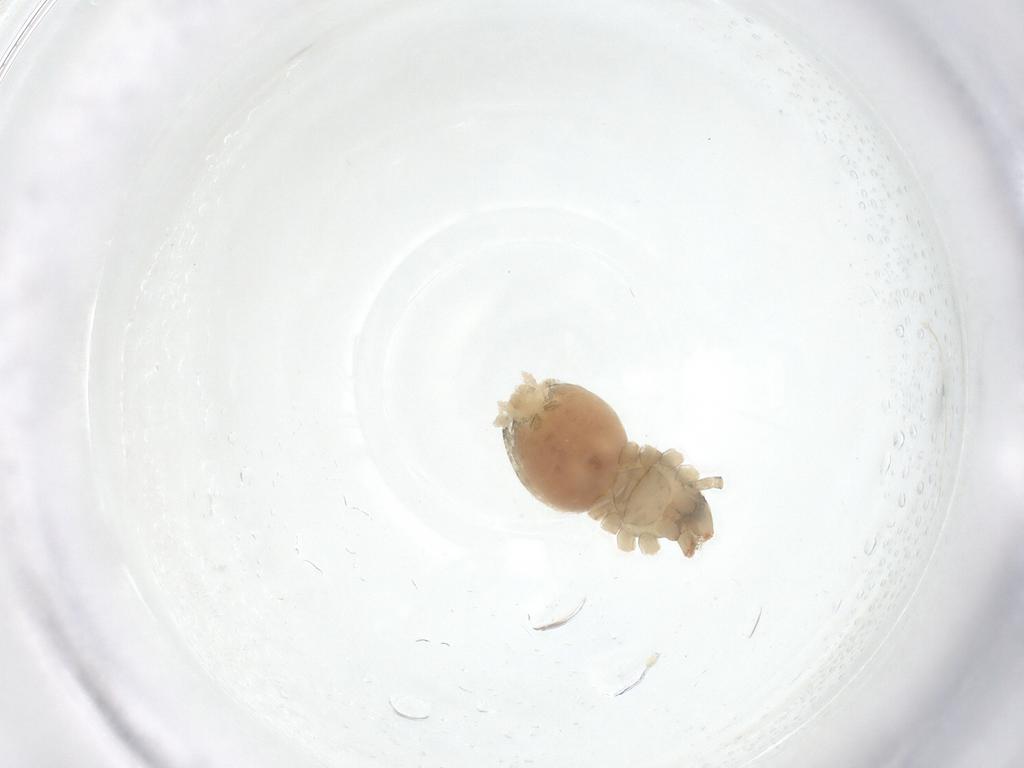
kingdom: Animalia
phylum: Arthropoda
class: Arachnida
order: Araneae
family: Clubionidae
